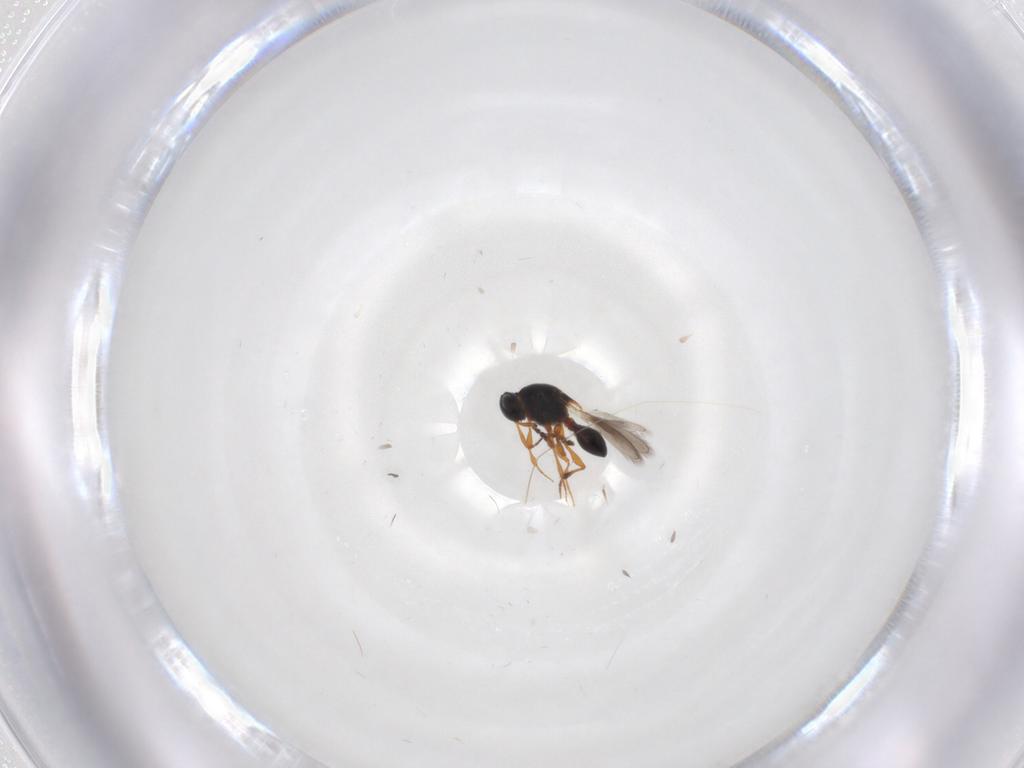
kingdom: Animalia
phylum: Arthropoda
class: Insecta
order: Hymenoptera
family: Platygastridae
